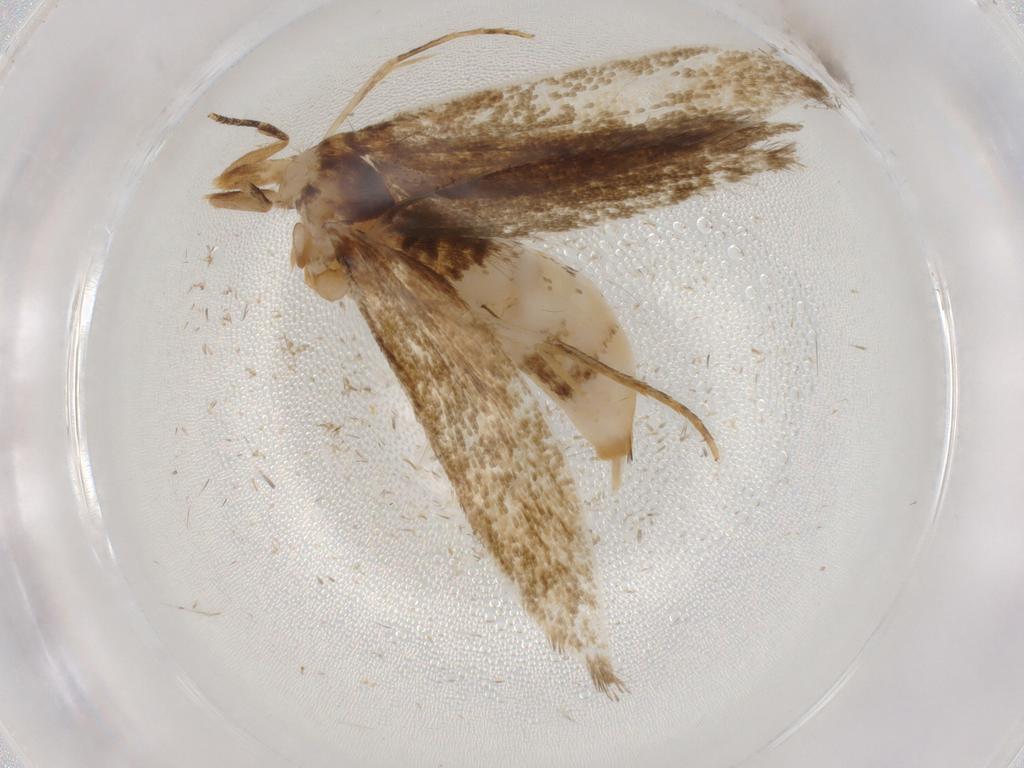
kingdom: Animalia
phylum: Arthropoda
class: Insecta
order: Lepidoptera
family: Tineidae
